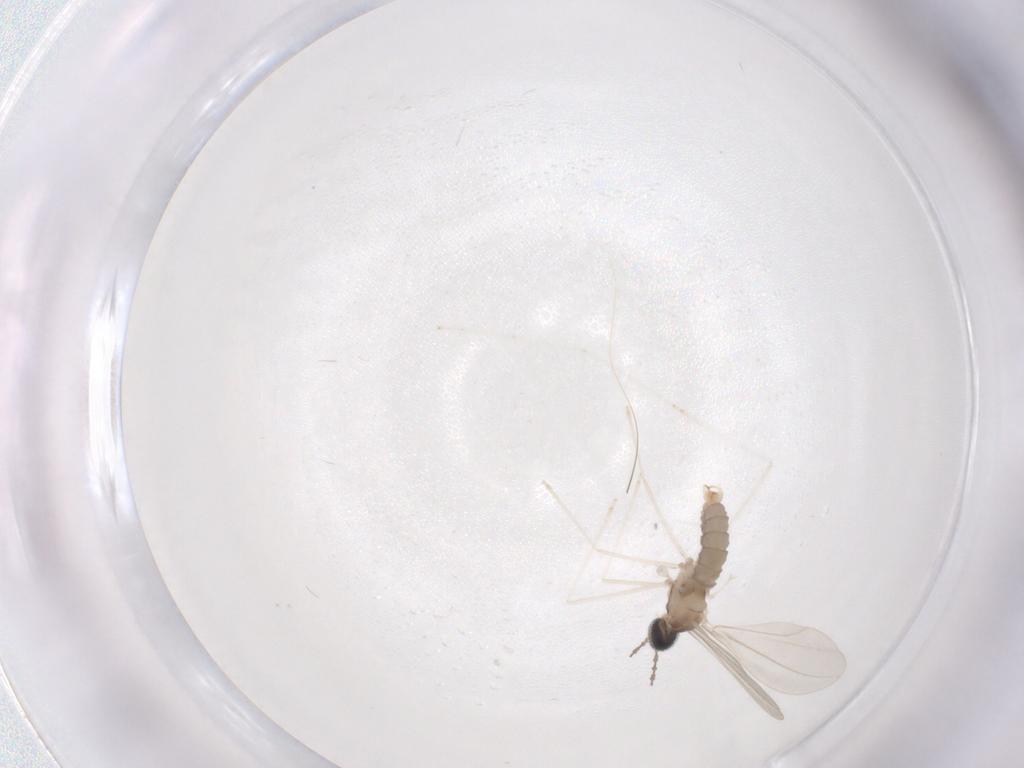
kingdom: Animalia
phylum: Arthropoda
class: Insecta
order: Diptera
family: Cecidomyiidae
